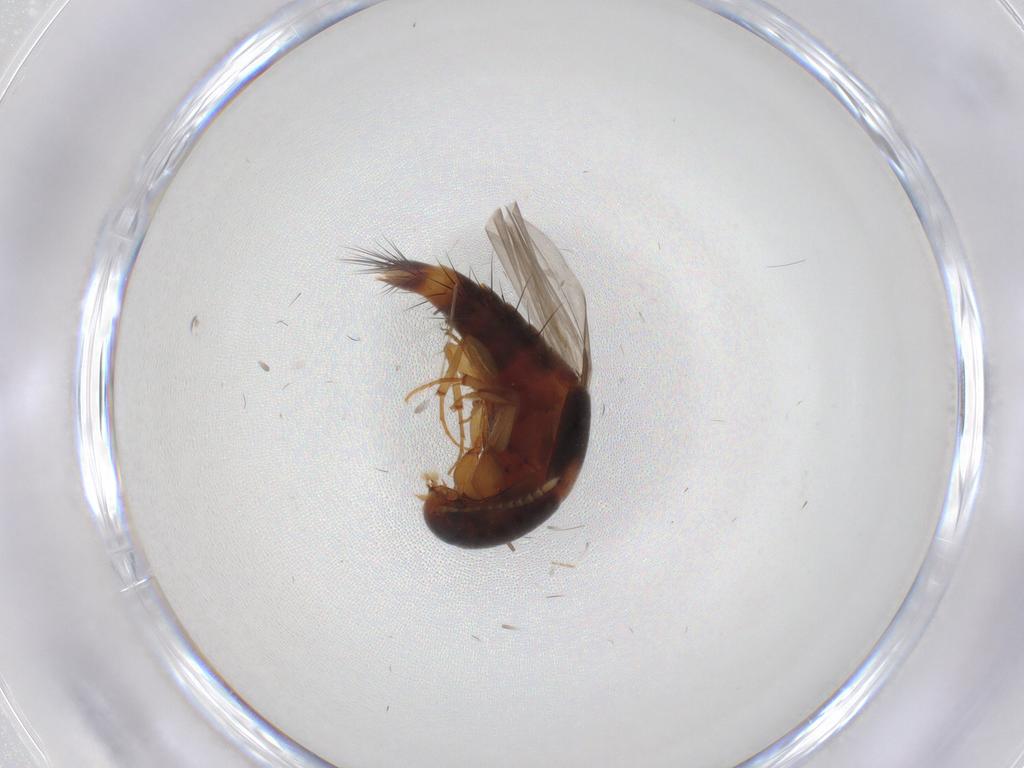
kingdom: Animalia
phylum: Arthropoda
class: Insecta
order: Coleoptera
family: Staphylinidae
